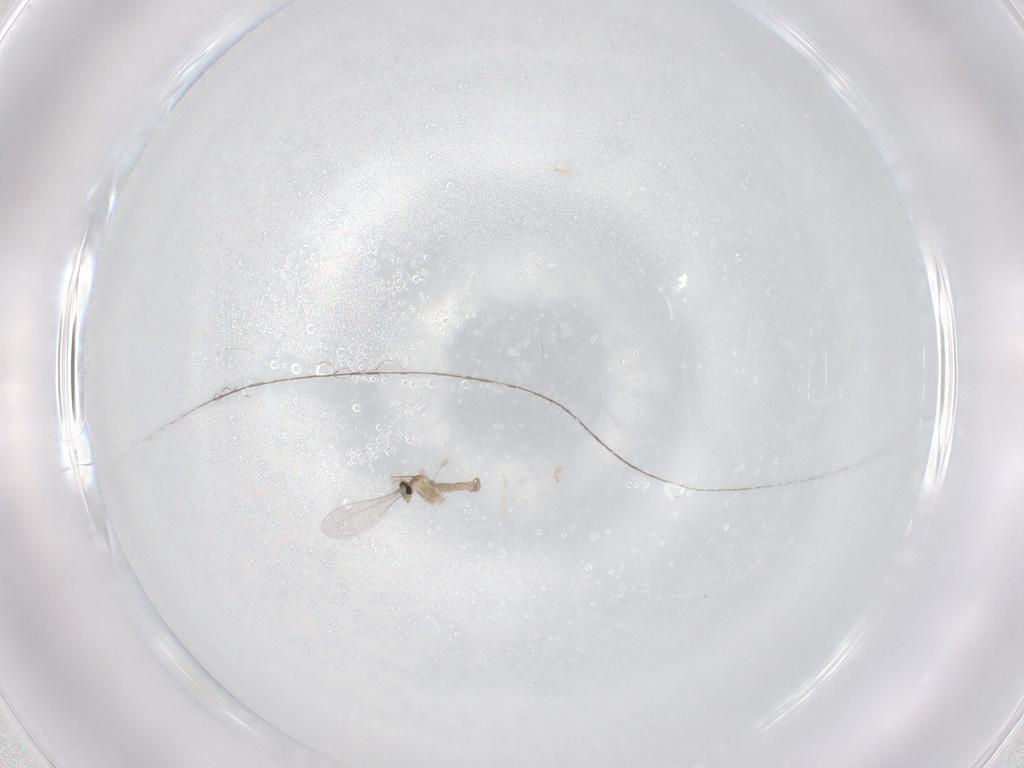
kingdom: Animalia
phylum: Arthropoda
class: Insecta
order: Diptera
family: Cecidomyiidae
